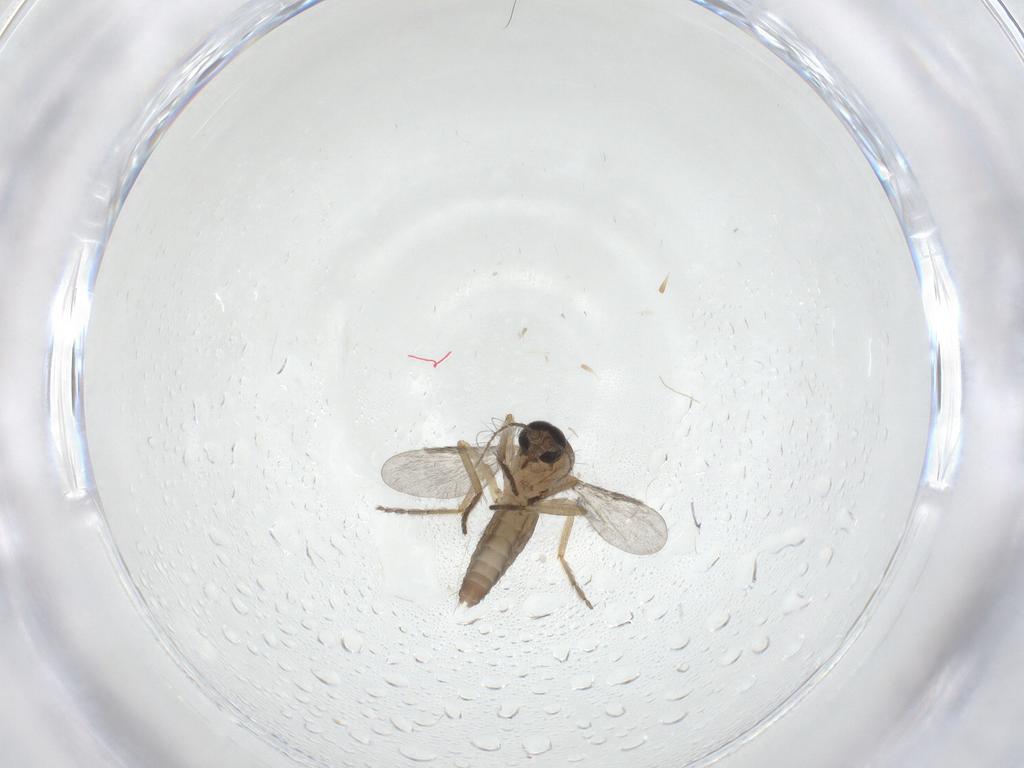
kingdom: Animalia
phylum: Arthropoda
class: Insecta
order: Diptera
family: Ceratopogonidae
